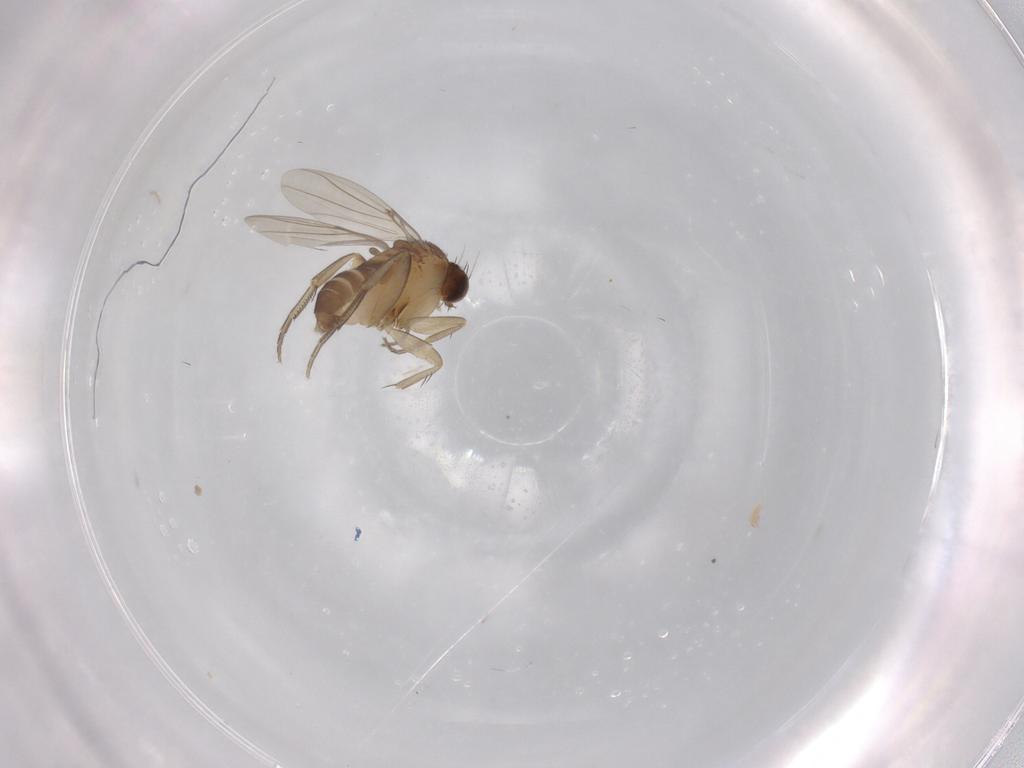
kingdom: Animalia
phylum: Arthropoda
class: Insecta
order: Diptera
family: Phoridae
